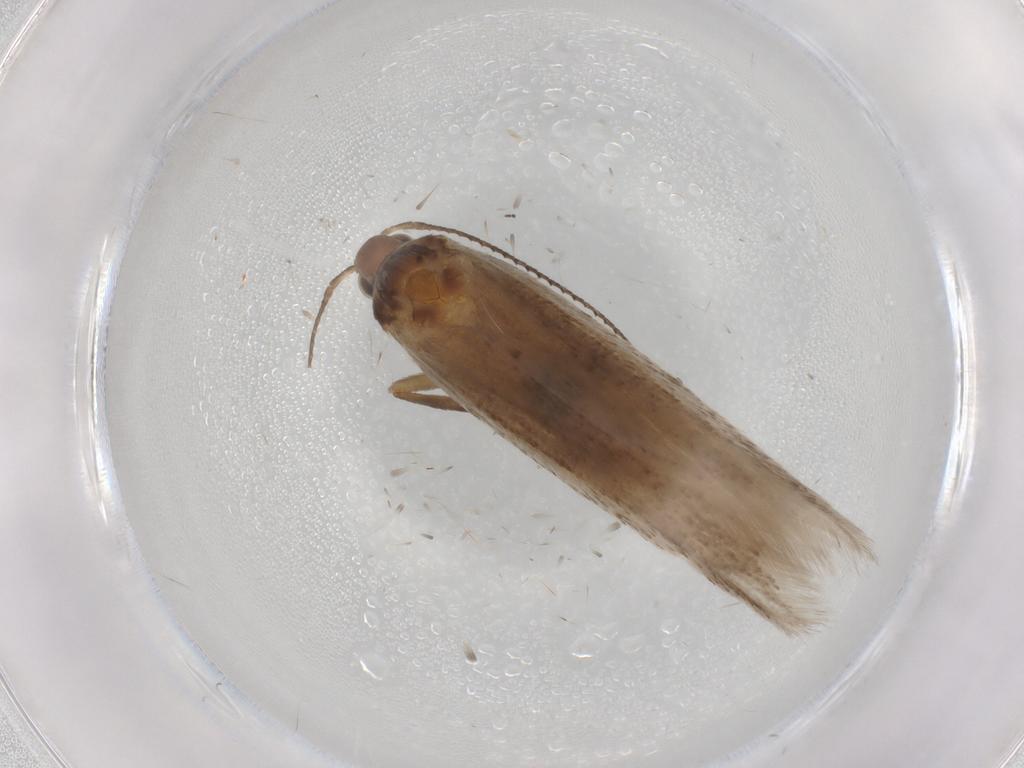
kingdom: Animalia
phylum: Arthropoda
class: Insecta
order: Lepidoptera
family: Gelechiidae
